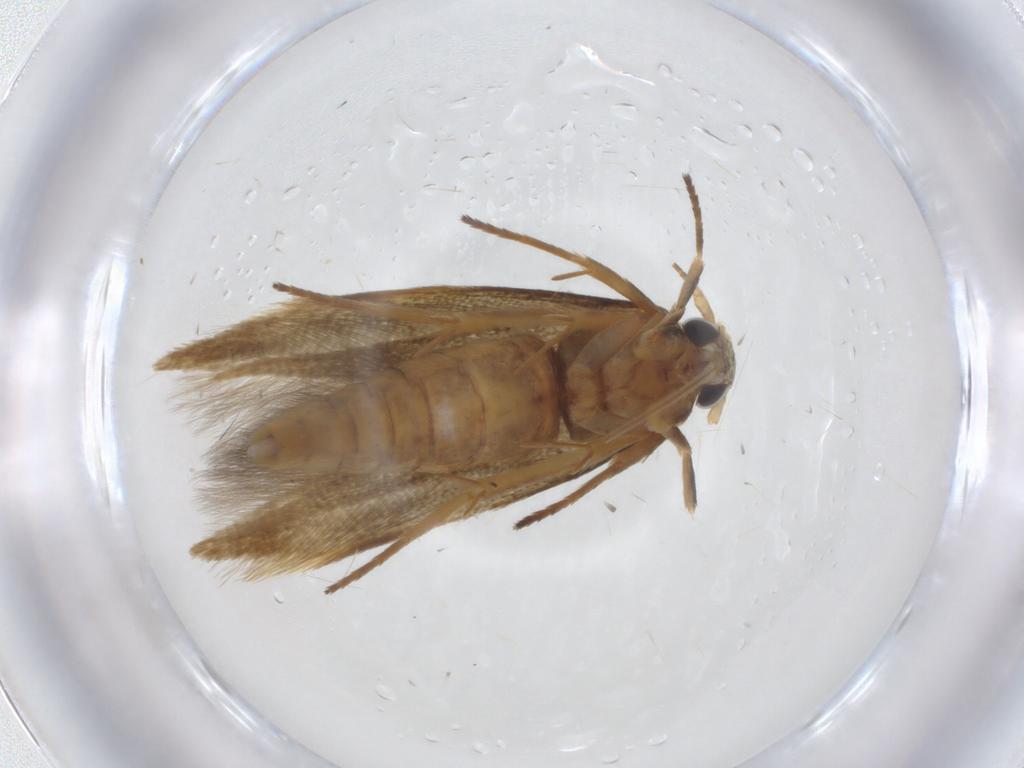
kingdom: Animalia
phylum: Arthropoda
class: Insecta
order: Lepidoptera
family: Stathmopodidae
